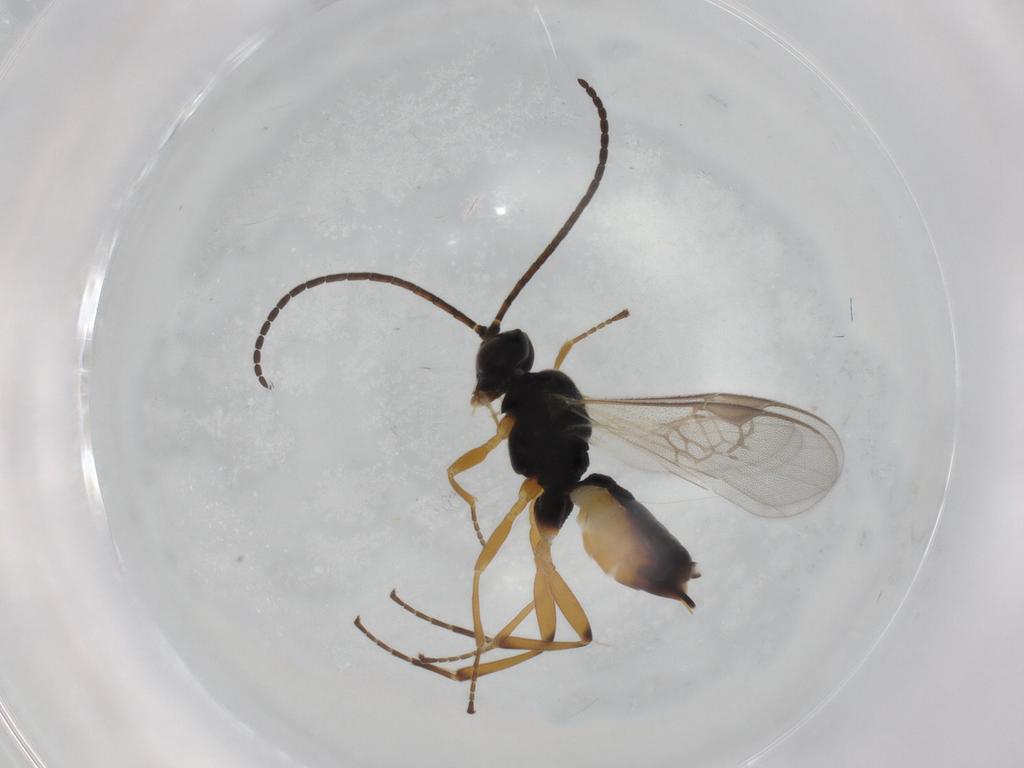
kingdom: Animalia
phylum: Arthropoda
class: Insecta
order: Hymenoptera
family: Braconidae
